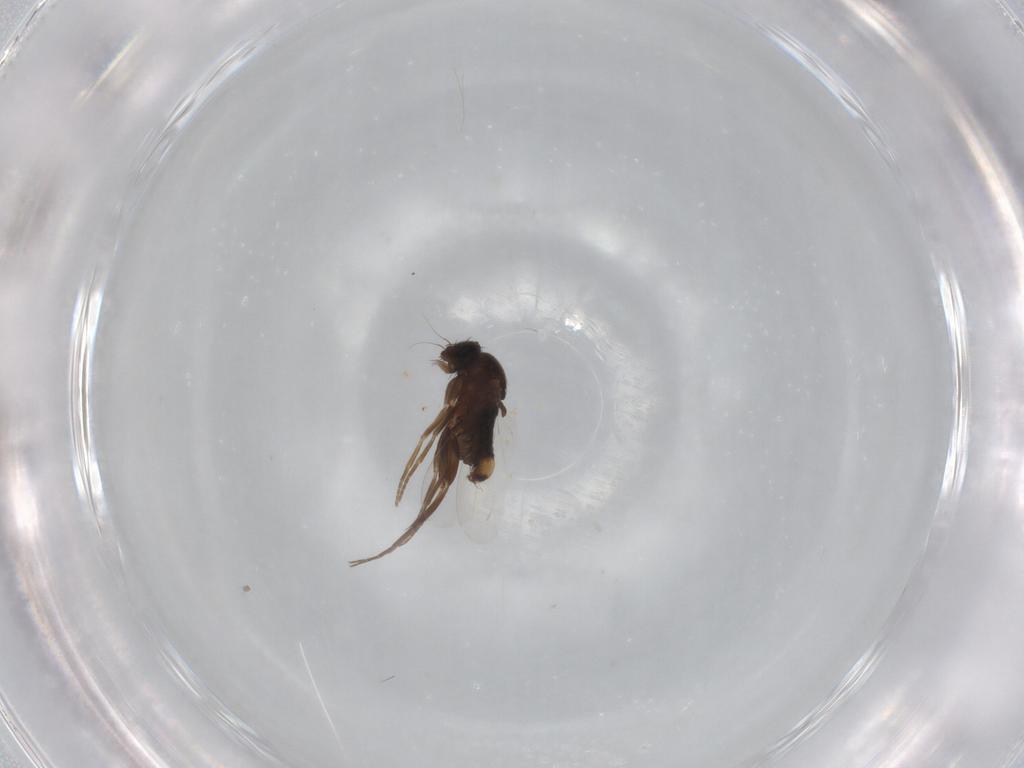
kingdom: Animalia
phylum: Arthropoda
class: Insecta
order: Diptera
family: Phoridae
